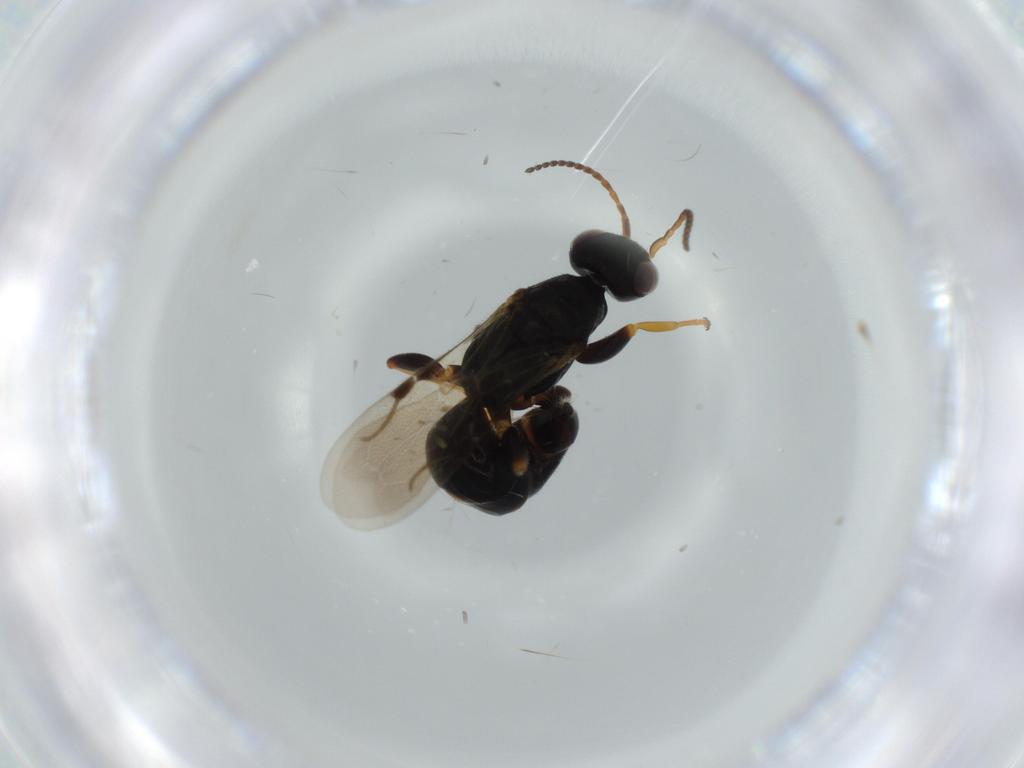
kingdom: Animalia
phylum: Arthropoda
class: Insecta
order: Hymenoptera
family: Bethylidae
